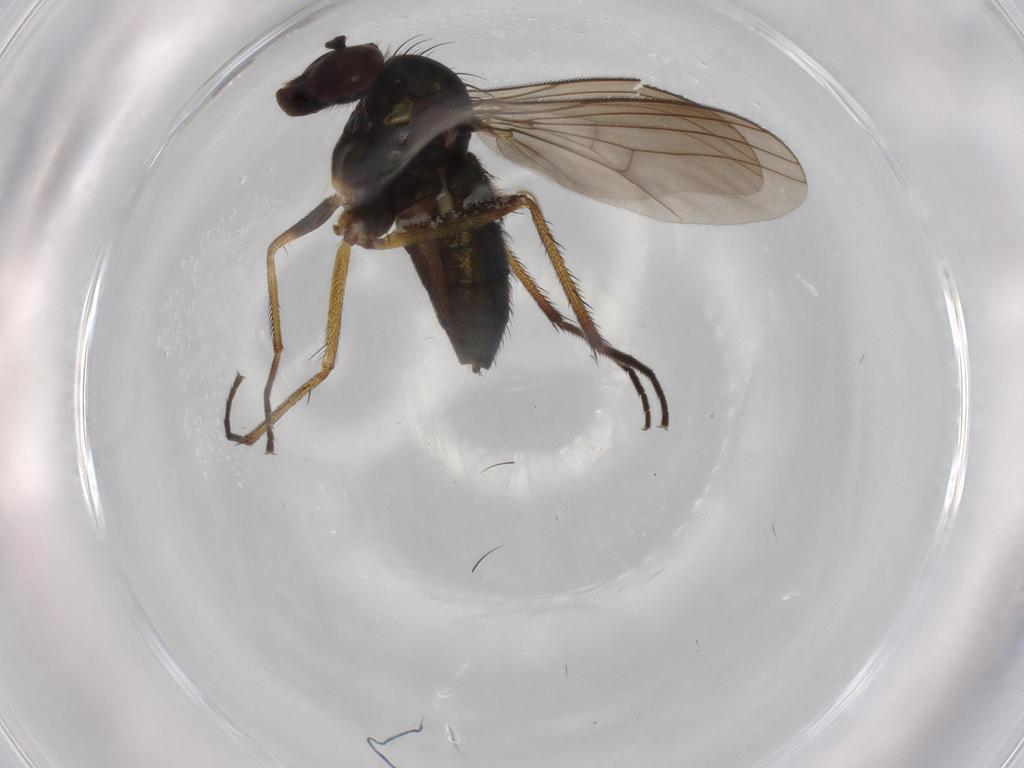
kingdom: Animalia
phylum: Arthropoda
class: Insecta
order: Diptera
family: Dolichopodidae
